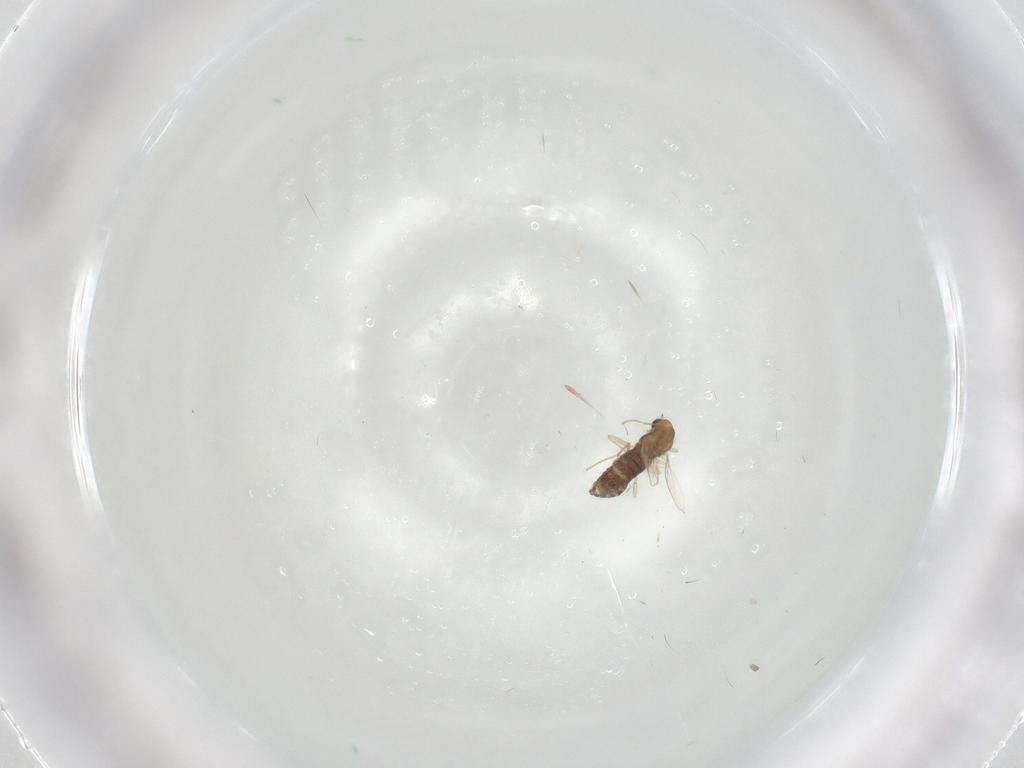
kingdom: Animalia
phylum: Arthropoda
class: Insecta
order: Diptera
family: Chironomidae
